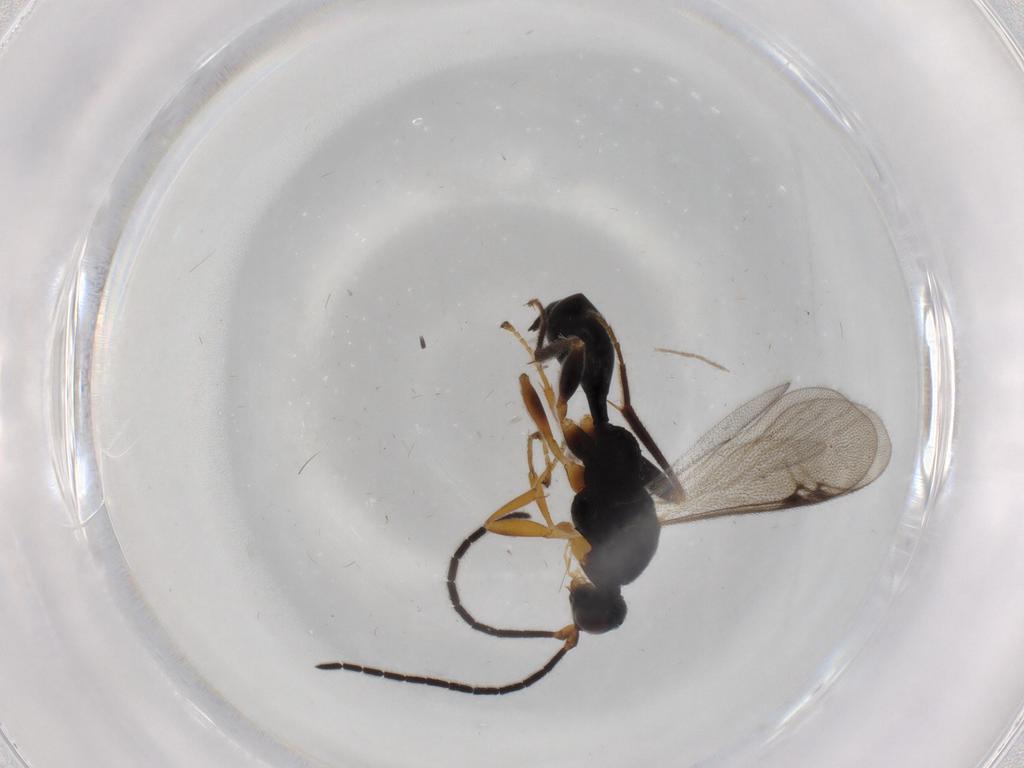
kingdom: Animalia
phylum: Arthropoda
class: Insecta
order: Hymenoptera
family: Proctotrupidae
